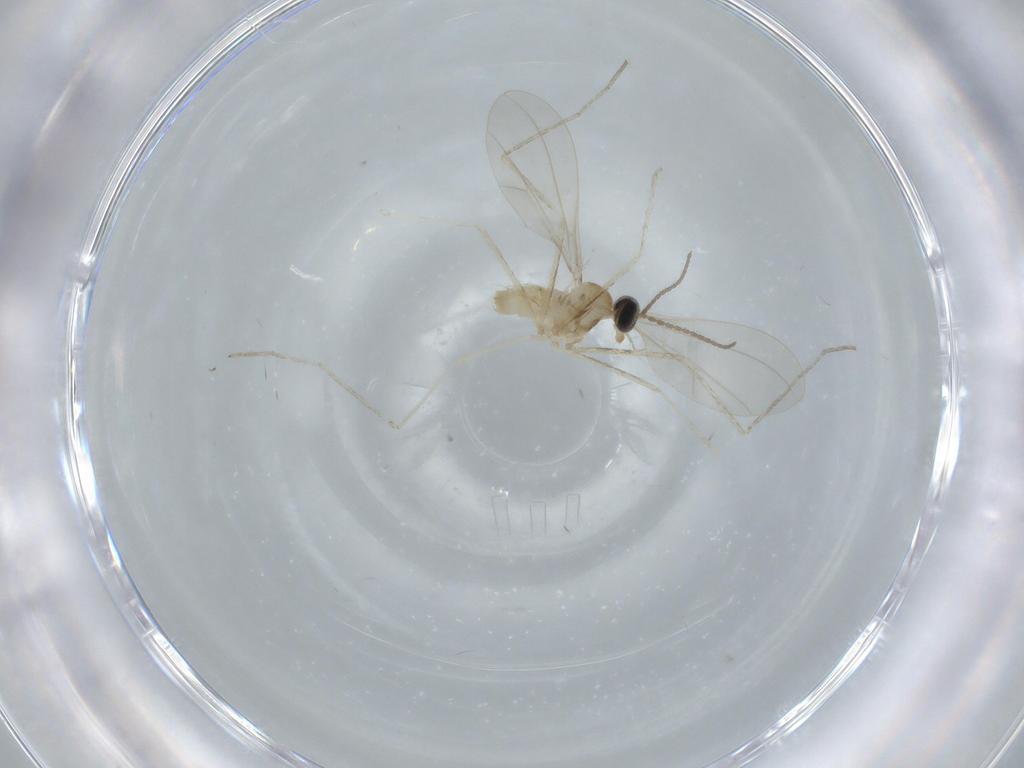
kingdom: Animalia
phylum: Arthropoda
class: Insecta
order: Diptera
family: Cecidomyiidae
